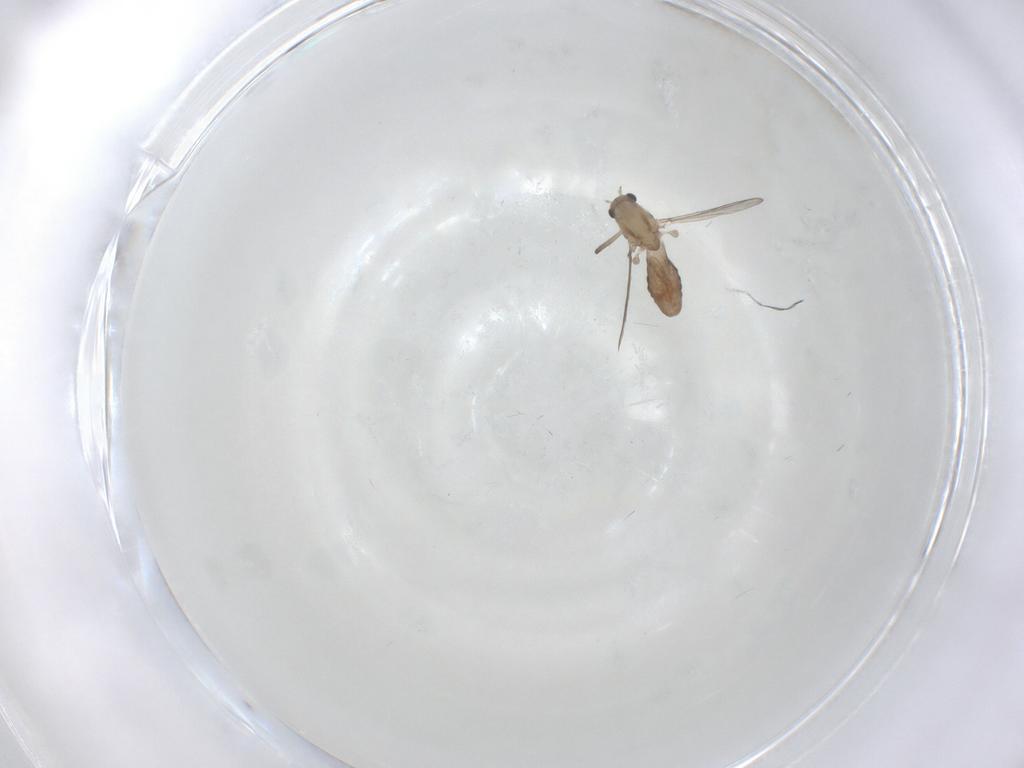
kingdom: Animalia
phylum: Arthropoda
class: Insecta
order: Diptera
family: Chironomidae
